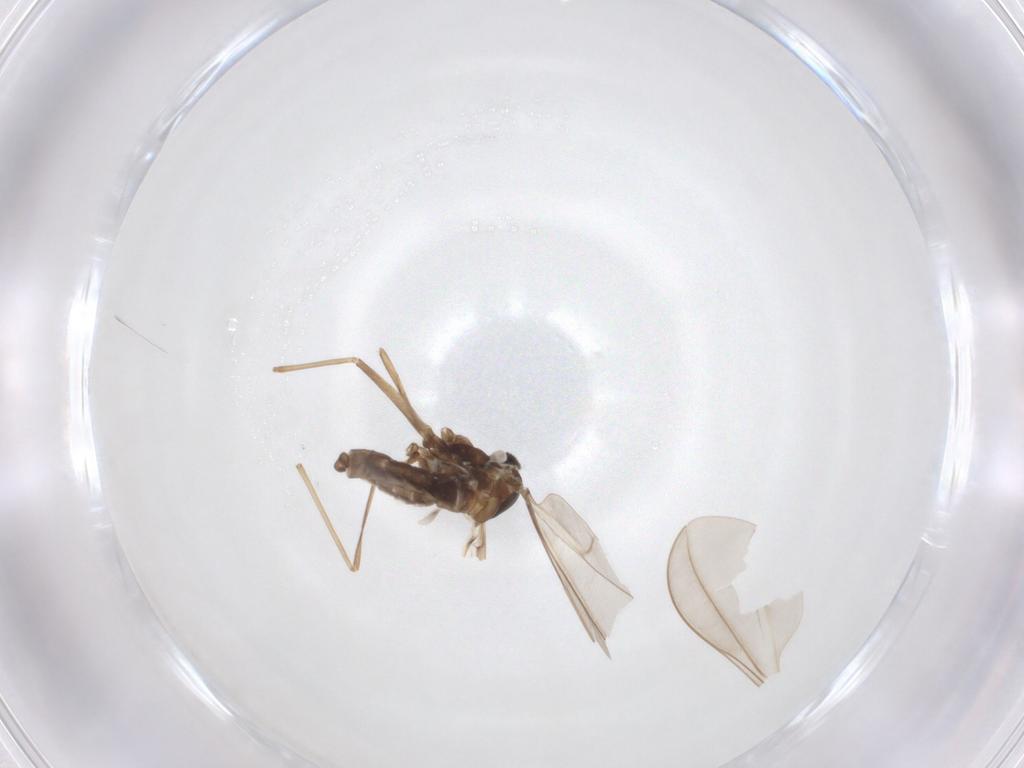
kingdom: Animalia
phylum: Arthropoda
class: Insecta
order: Diptera
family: Cecidomyiidae
